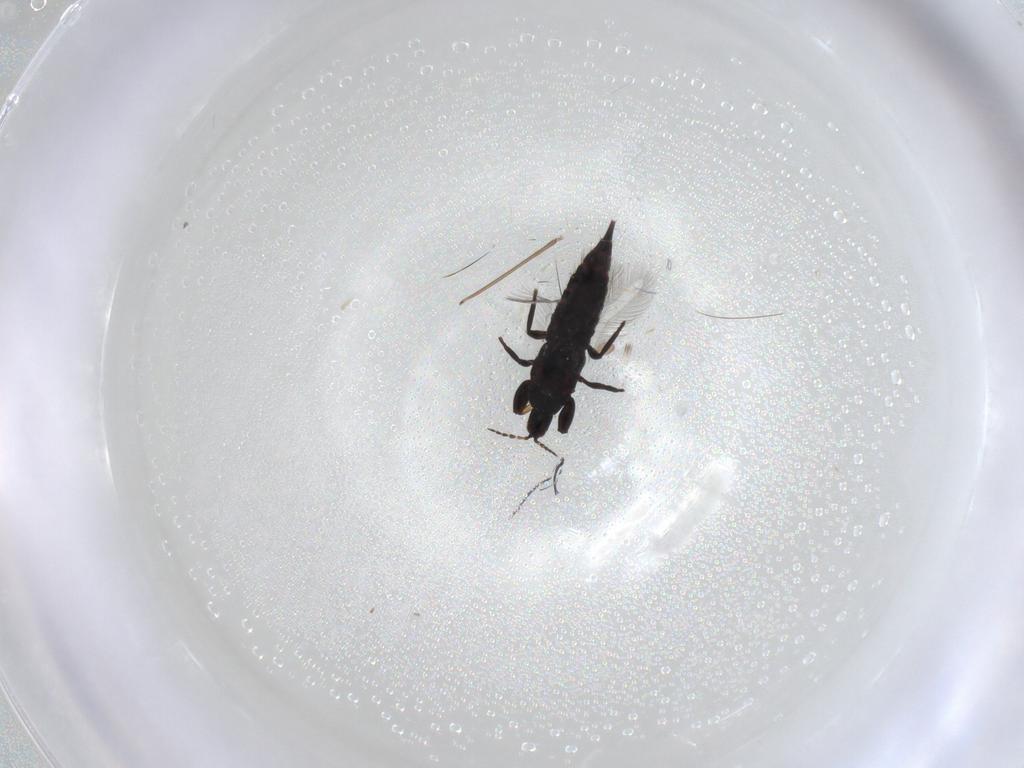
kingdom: Animalia
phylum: Arthropoda
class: Insecta
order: Thysanoptera
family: Phlaeothripidae
